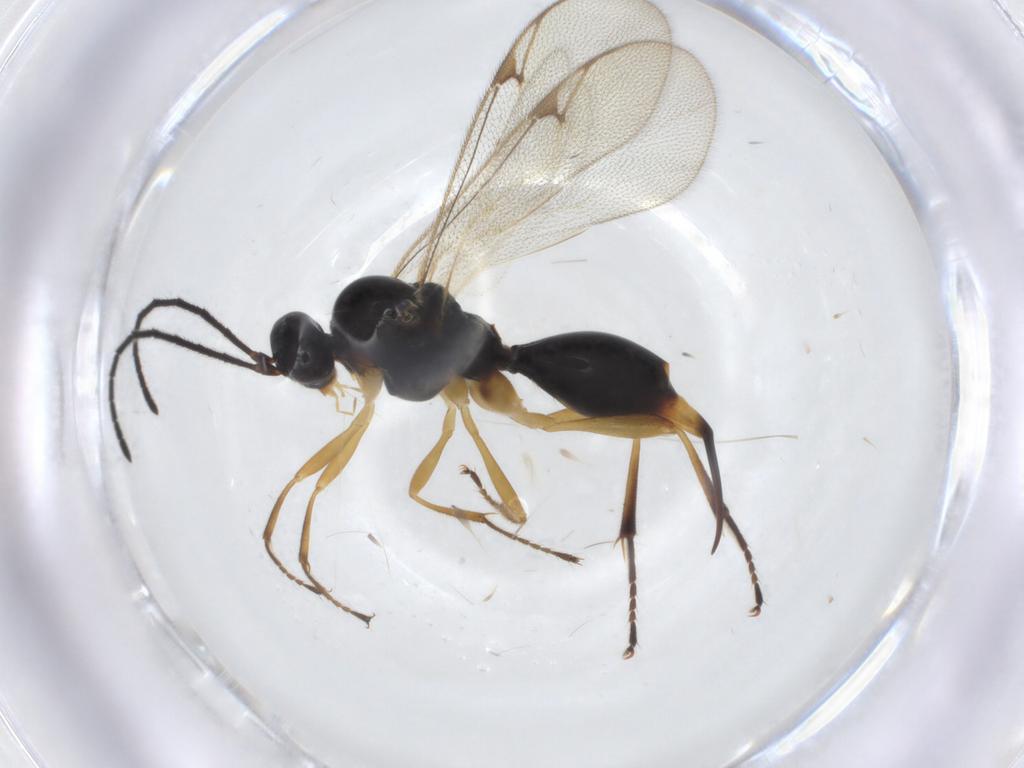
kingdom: Animalia
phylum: Arthropoda
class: Insecta
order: Hymenoptera
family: Proctotrupidae
